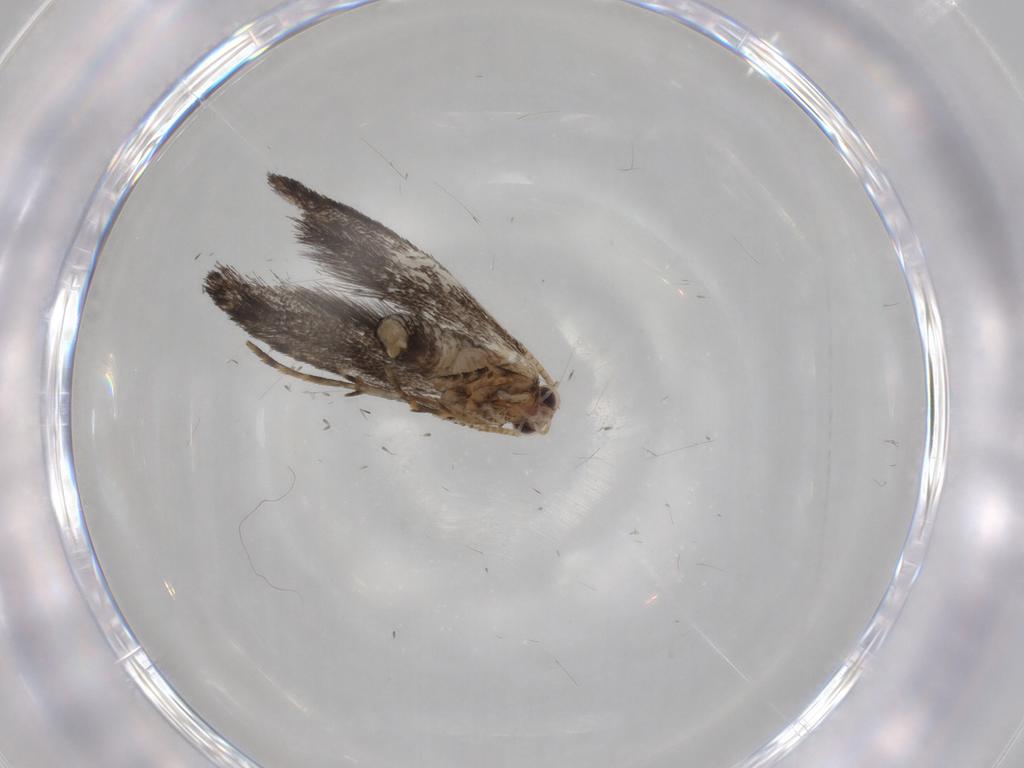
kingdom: Animalia
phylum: Arthropoda
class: Insecta
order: Lepidoptera
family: Tineidae
